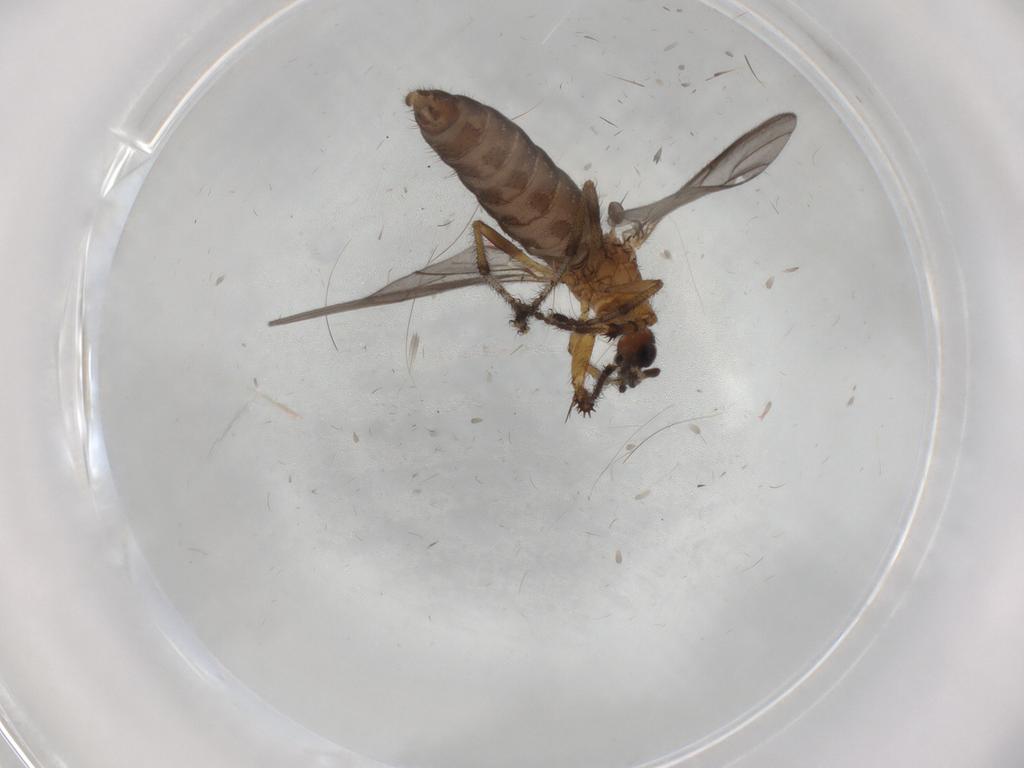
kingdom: Animalia
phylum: Arthropoda
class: Insecta
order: Diptera
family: Bibionidae
